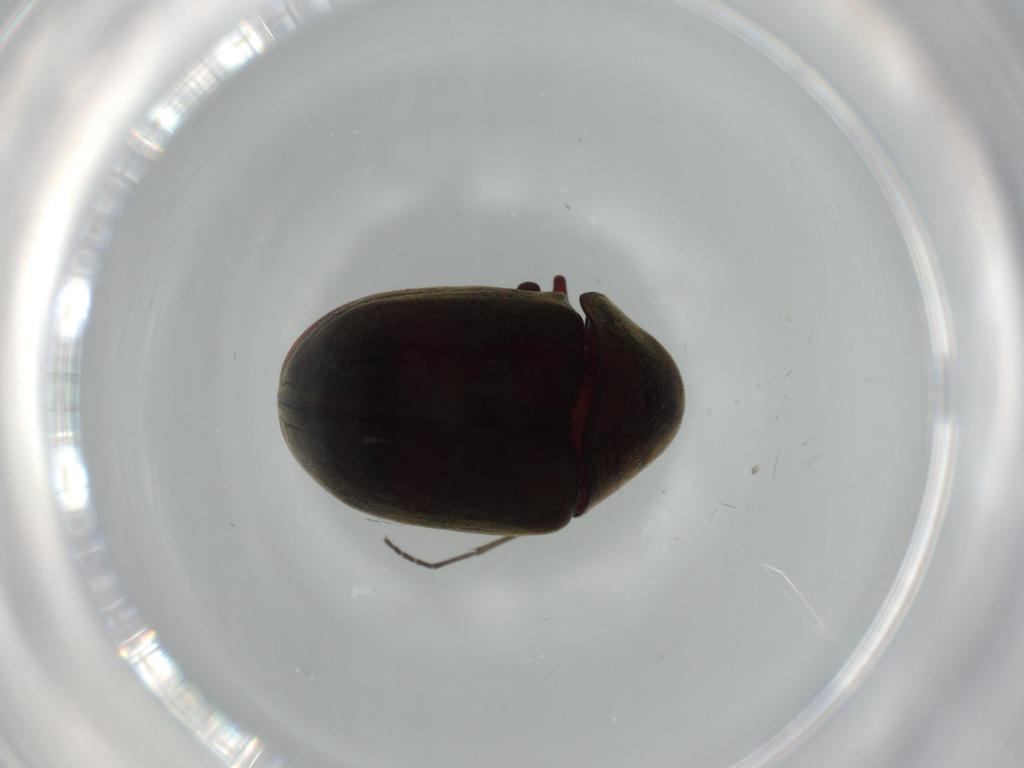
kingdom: Animalia
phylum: Arthropoda
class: Insecta
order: Coleoptera
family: Ptinidae
